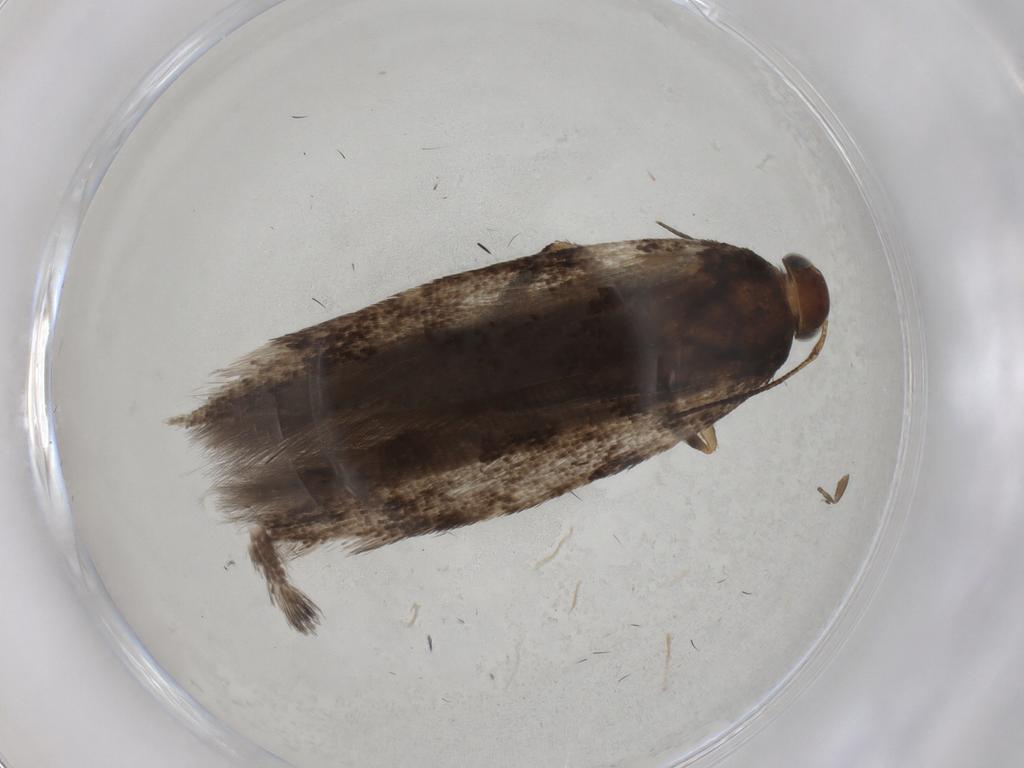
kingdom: Animalia
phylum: Arthropoda
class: Insecta
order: Lepidoptera
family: Gelechiidae
